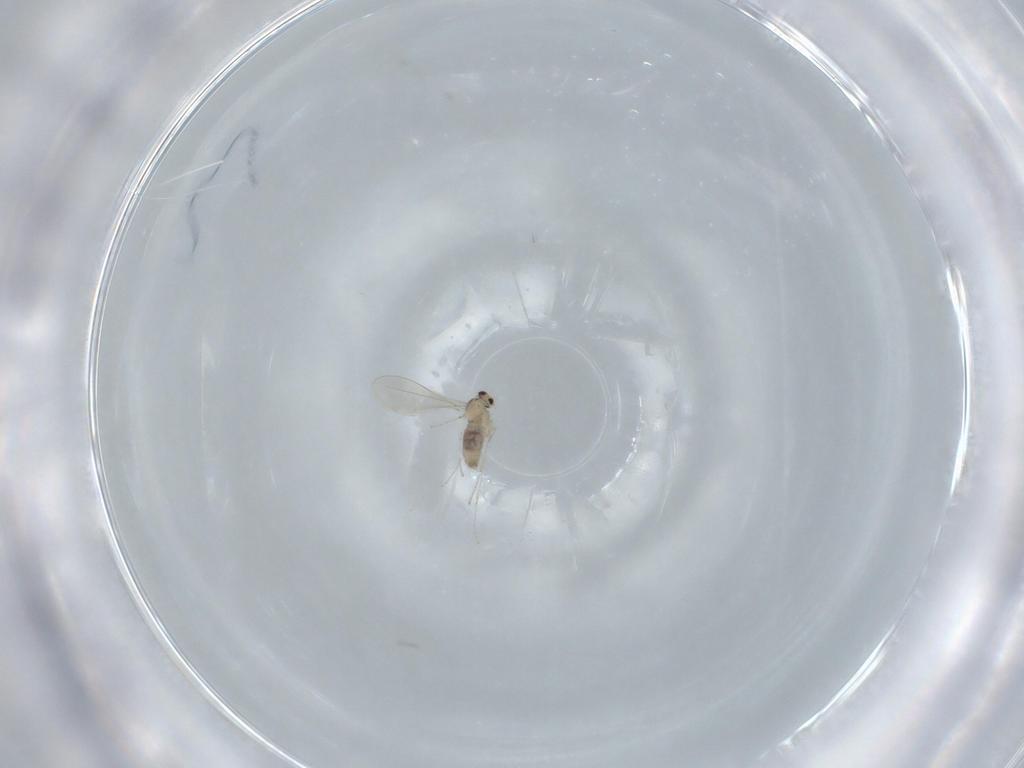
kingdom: Animalia
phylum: Arthropoda
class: Insecta
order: Diptera
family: Cecidomyiidae
